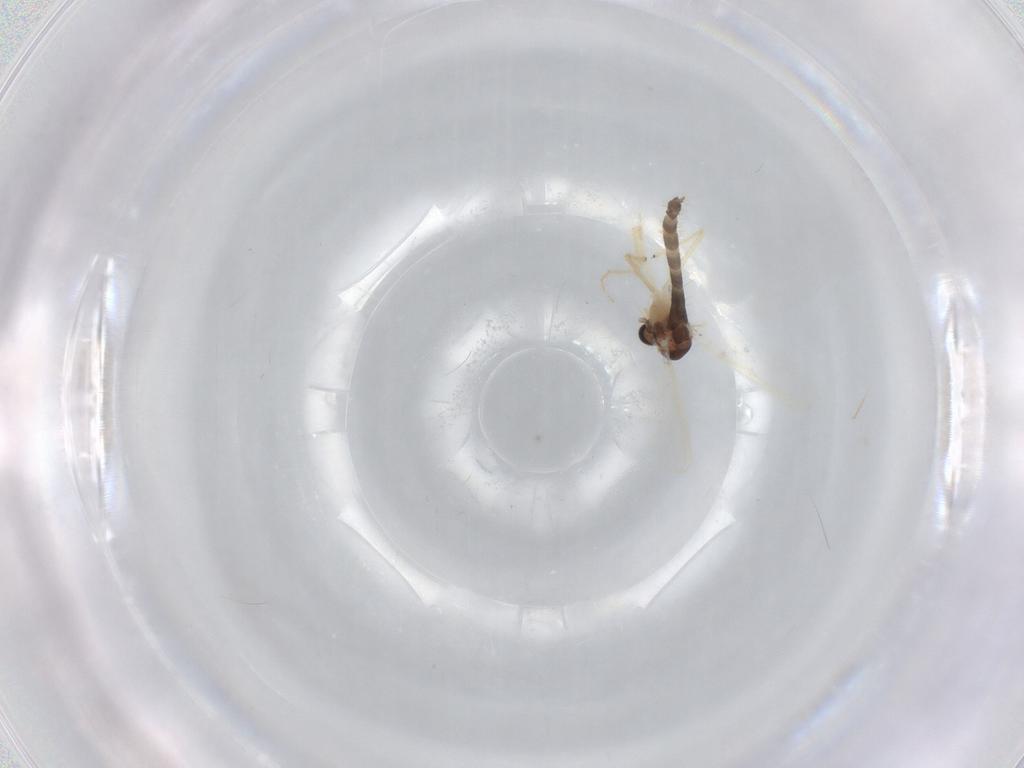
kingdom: Animalia
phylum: Arthropoda
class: Insecta
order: Diptera
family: Chironomidae
